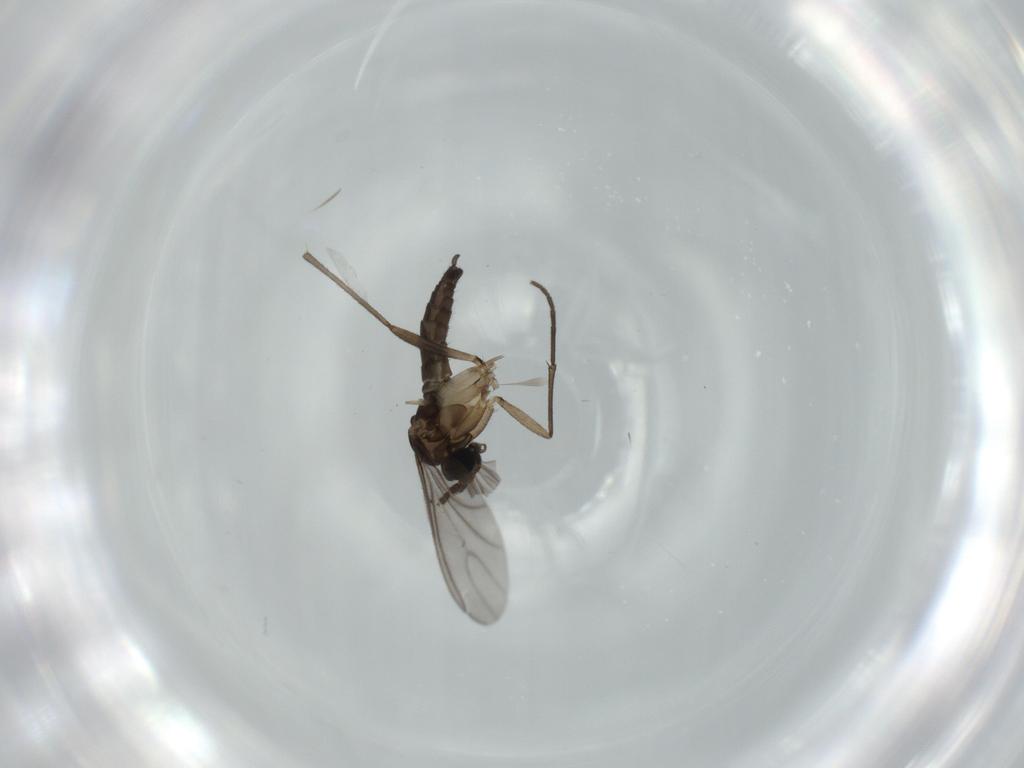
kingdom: Animalia
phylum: Arthropoda
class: Insecta
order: Diptera
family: Sciaridae
